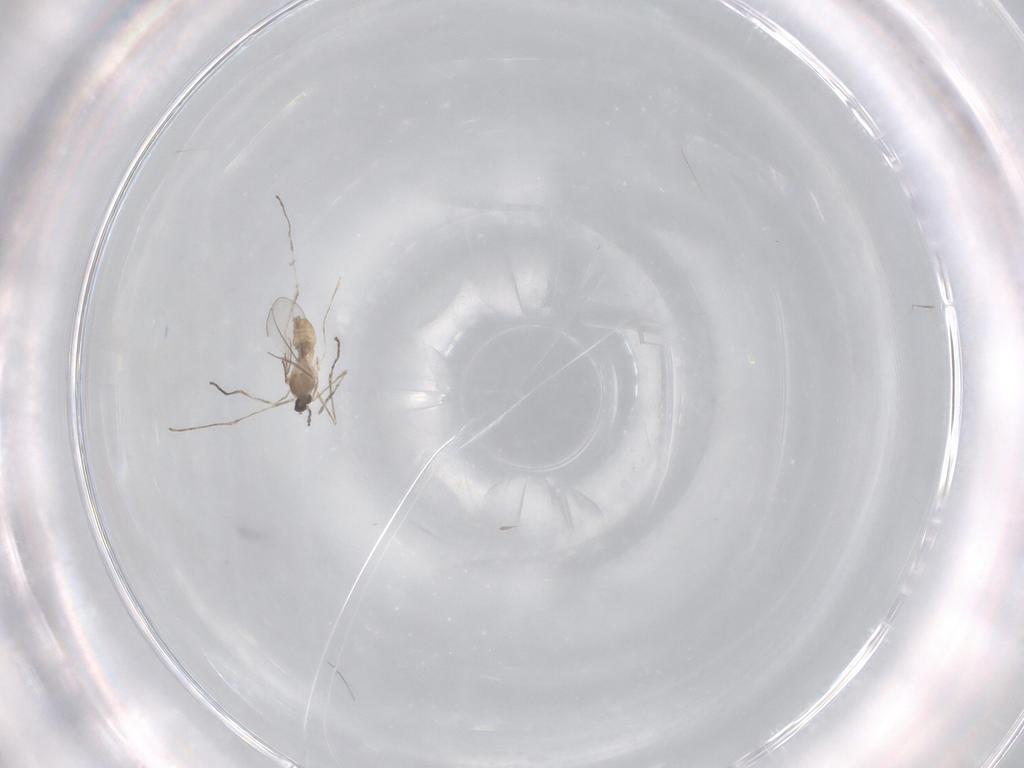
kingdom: Animalia
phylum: Arthropoda
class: Insecta
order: Diptera
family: Cecidomyiidae
